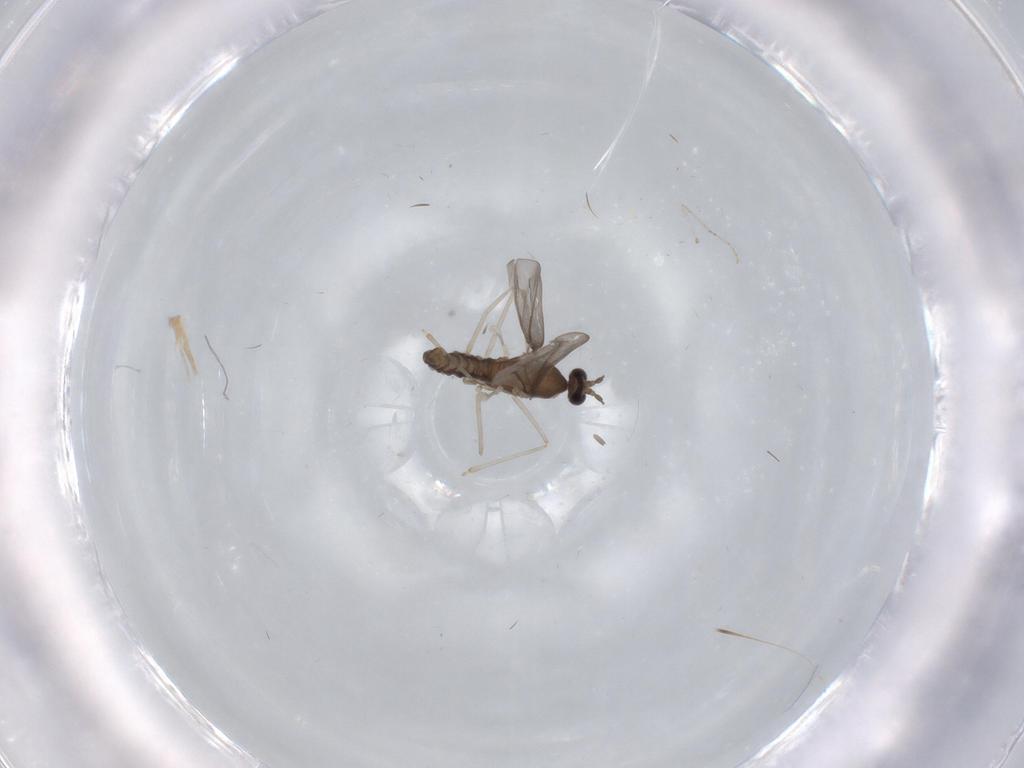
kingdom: Animalia
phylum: Arthropoda
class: Insecta
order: Diptera
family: Cecidomyiidae
